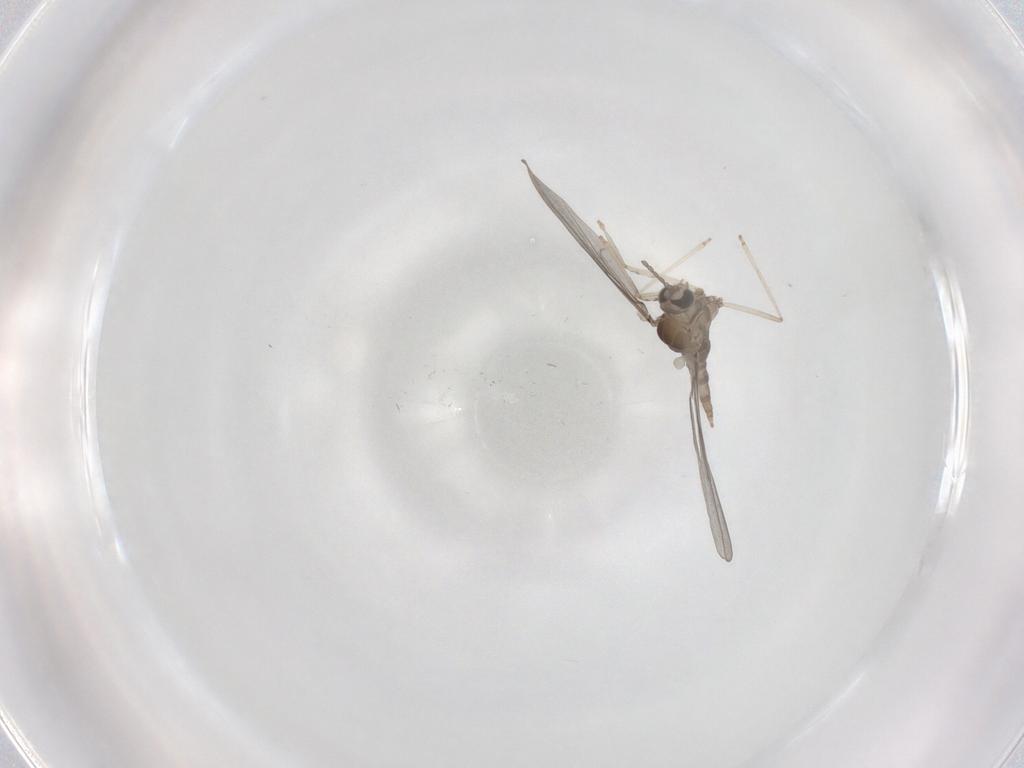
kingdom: Animalia
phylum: Arthropoda
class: Insecta
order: Diptera
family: Cecidomyiidae
